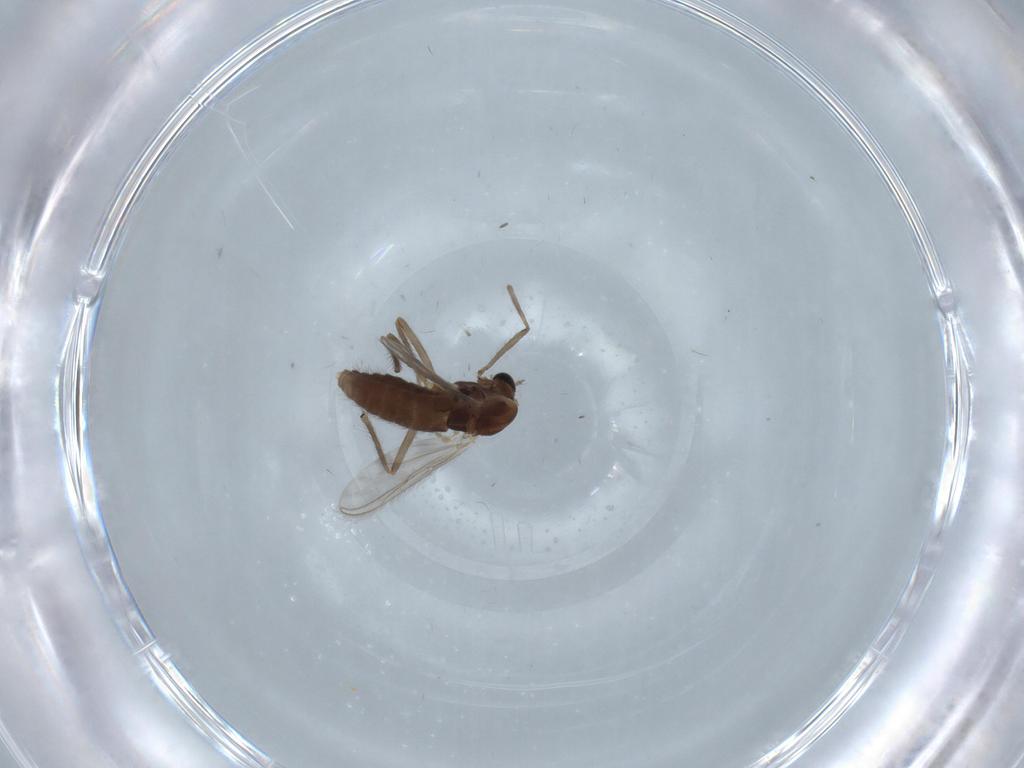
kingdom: Animalia
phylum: Arthropoda
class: Insecta
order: Diptera
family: Chironomidae
